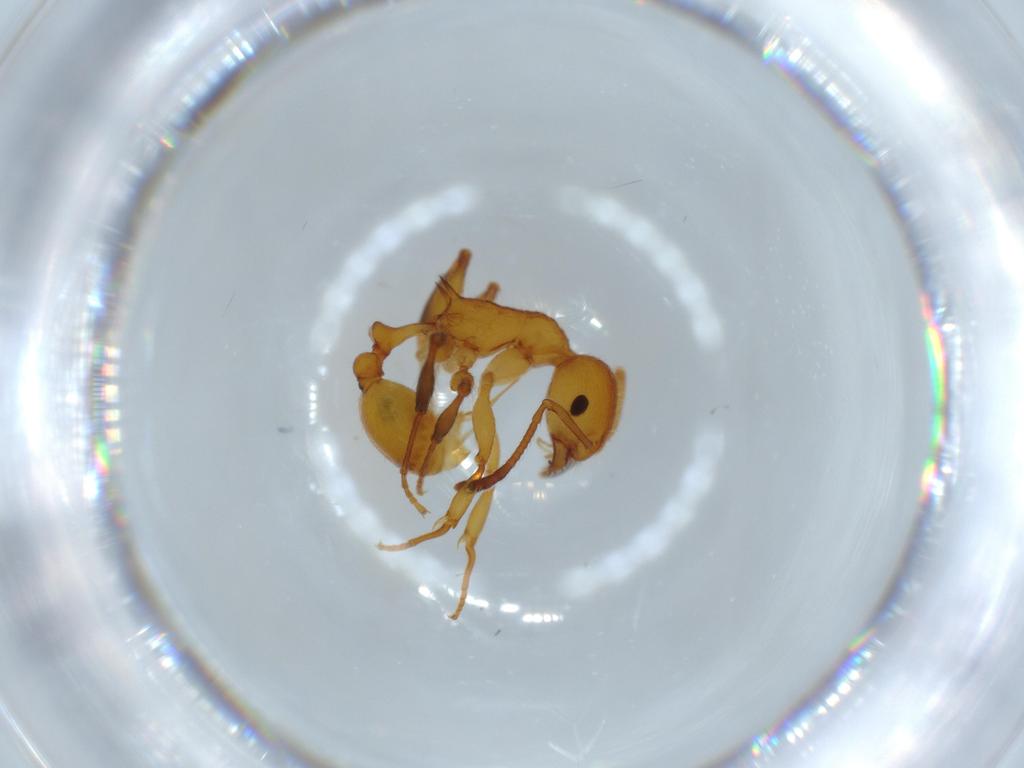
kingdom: Animalia
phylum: Arthropoda
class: Insecta
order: Hymenoptera
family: Formicidae
